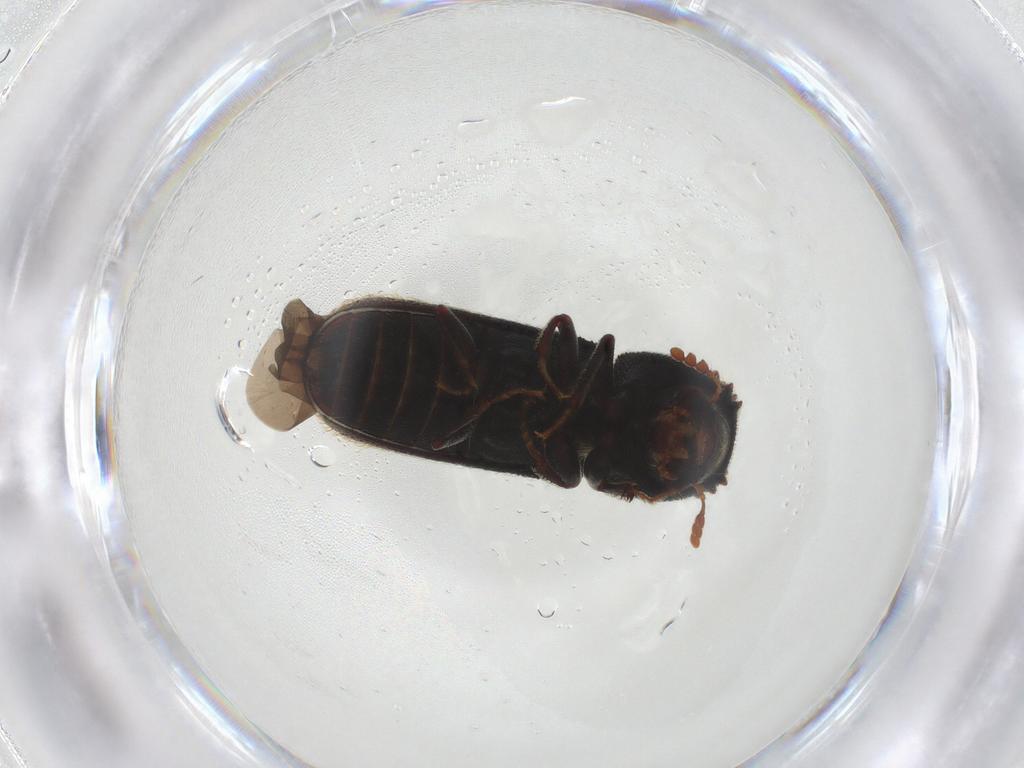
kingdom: Animalia
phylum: Arthropoda
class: Insecta
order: Coleoptera
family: Bostrichidae
